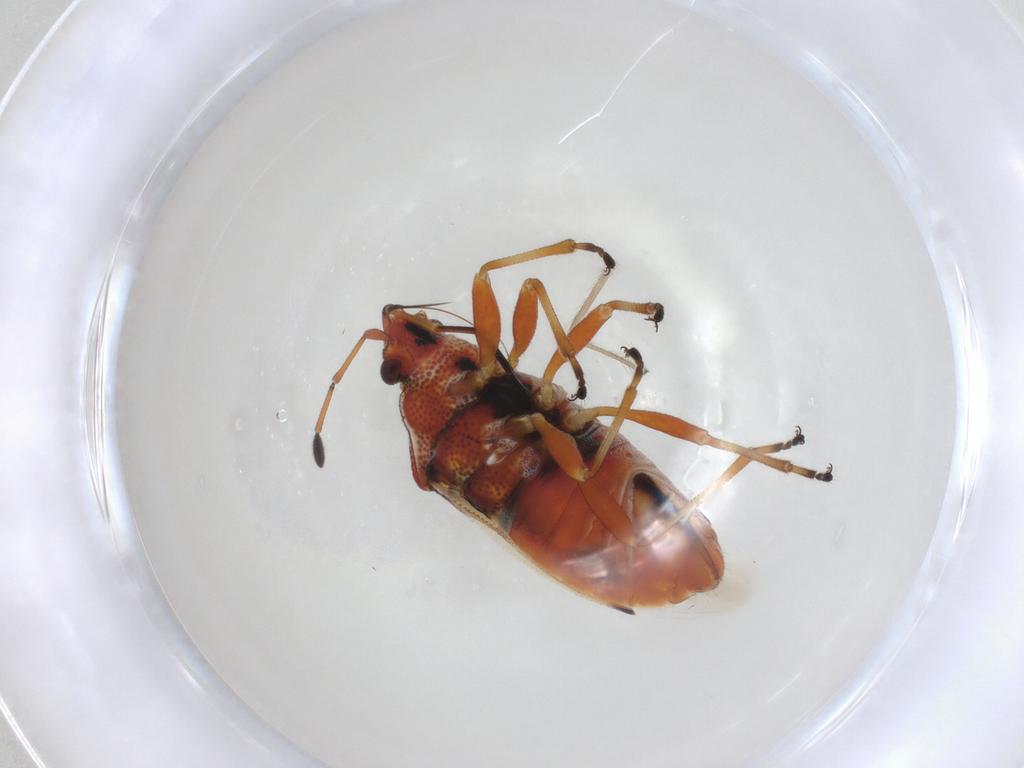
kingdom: Animalia
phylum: Arthropoda
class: Insecta
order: Hemiptera
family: Lygaeidae
